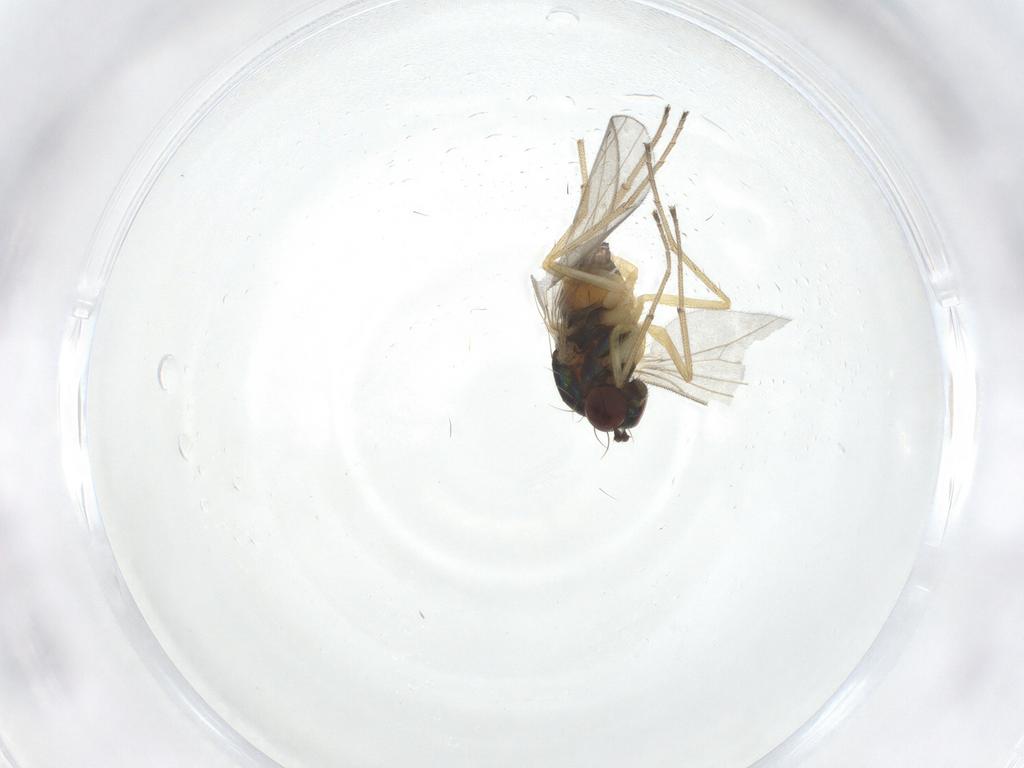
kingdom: Animalia
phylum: Arthropoda
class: Insecta
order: Diptera
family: Dolichopodidae
